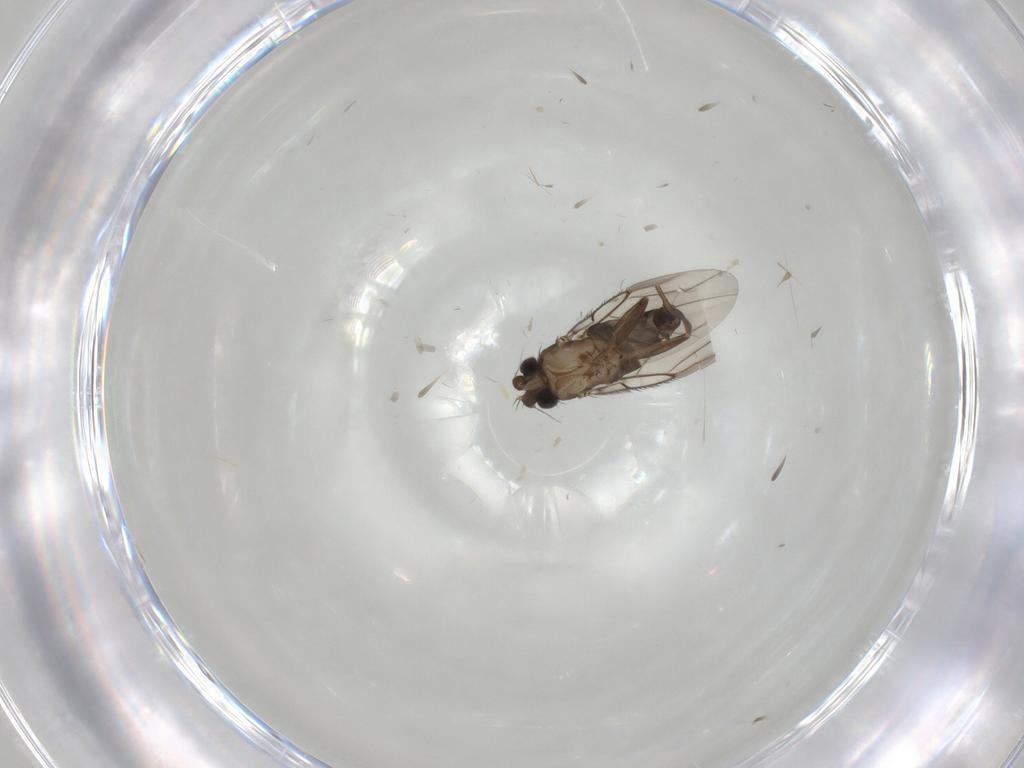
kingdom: Animalia
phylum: Arthropoda
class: Insecta
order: Diptera
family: Phoridae
